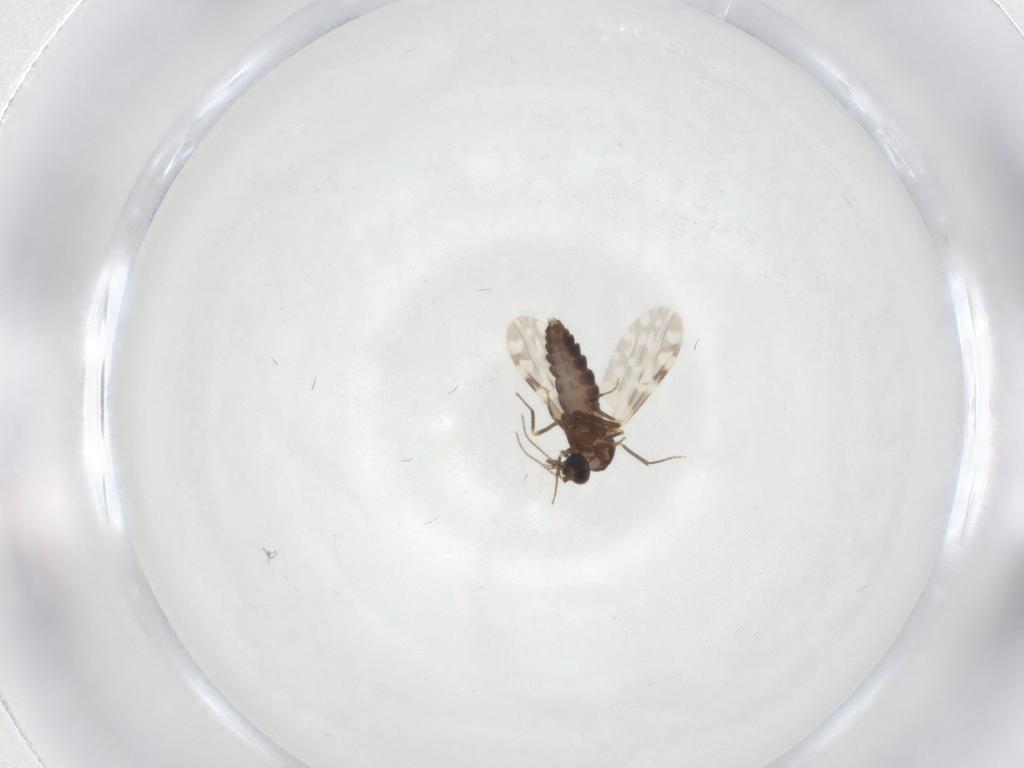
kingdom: Animalia
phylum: Arthropoda
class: Insecta
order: Diptera
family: Ceratopogonidae
